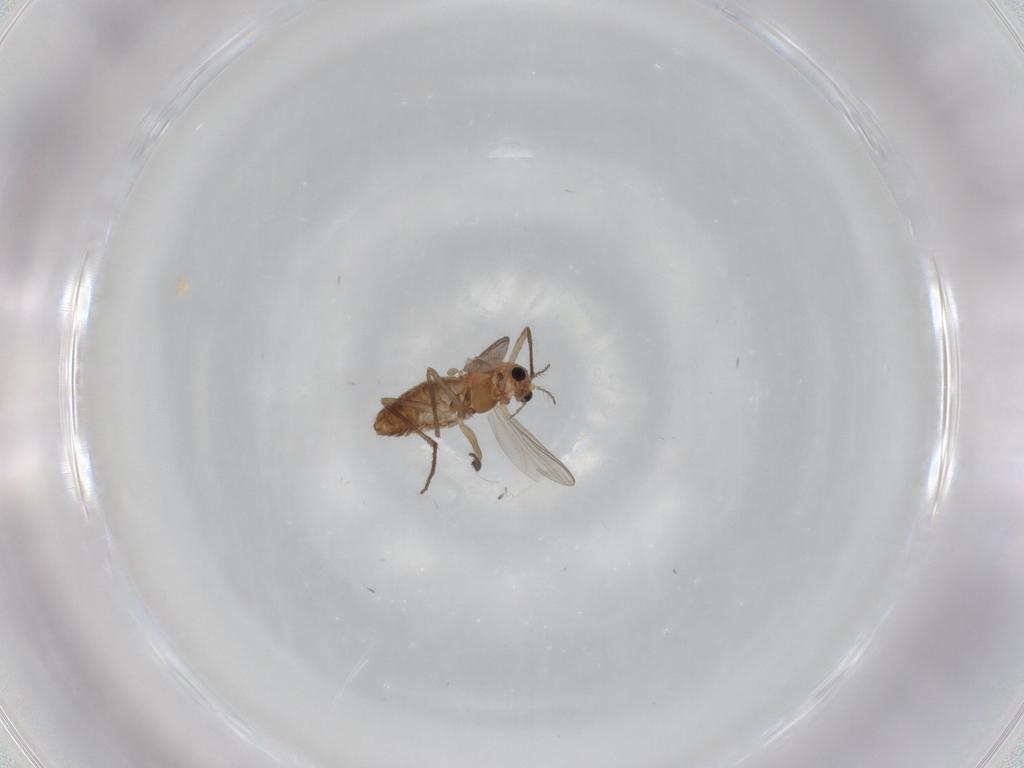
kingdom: Animalia
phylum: Arthropoda
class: Insecta
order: Diptera
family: Chironomidae
